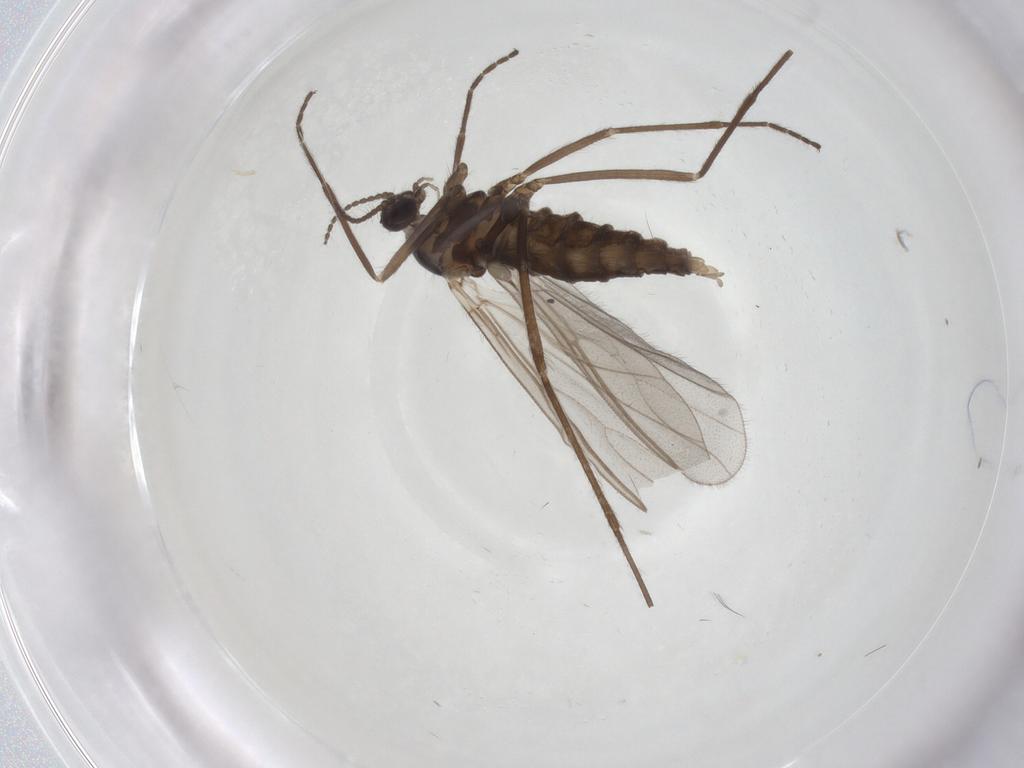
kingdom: Animalia
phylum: Arthropoda
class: Insecta
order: Diptera
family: Cecidomyiidae
